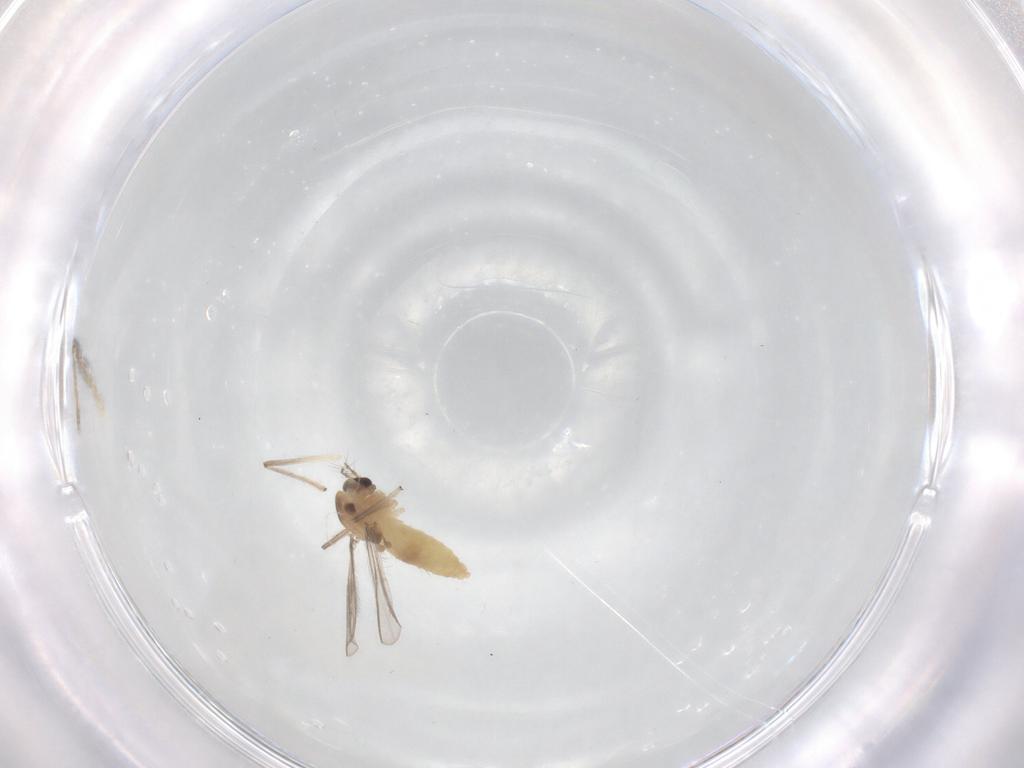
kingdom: Animalia
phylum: Arthropoda
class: Insecta
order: Diptera
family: Chironomidae
